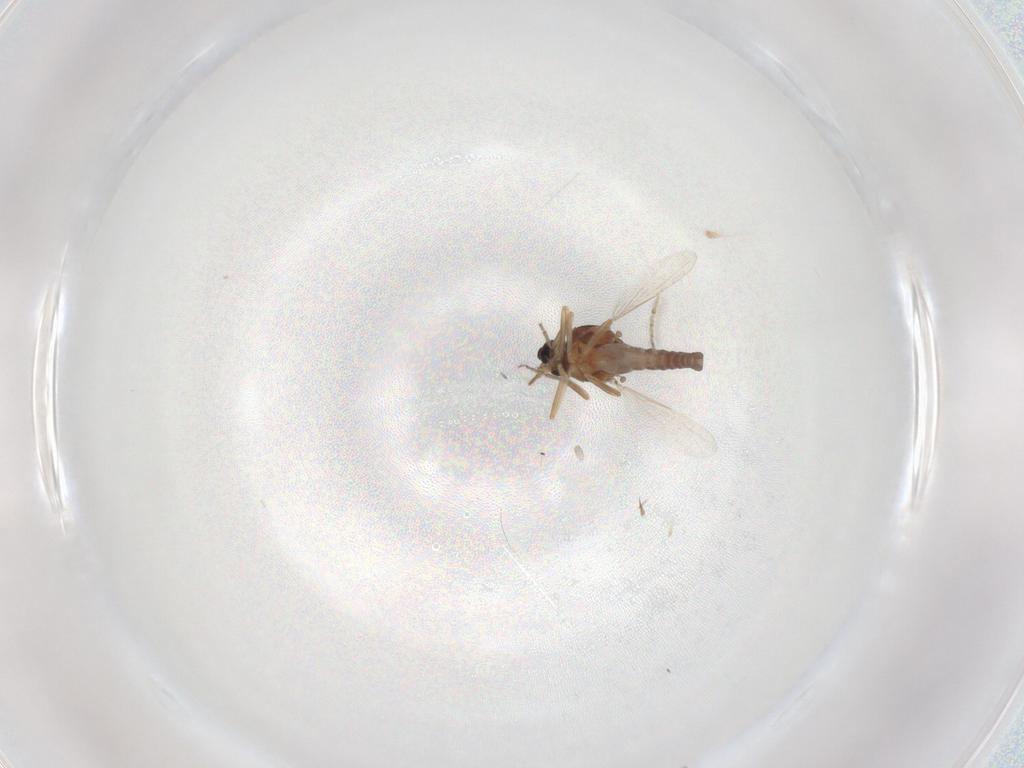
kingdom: Animalia
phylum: Arthropoda
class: Insecta
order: Diptera
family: Ceratopogonidae
